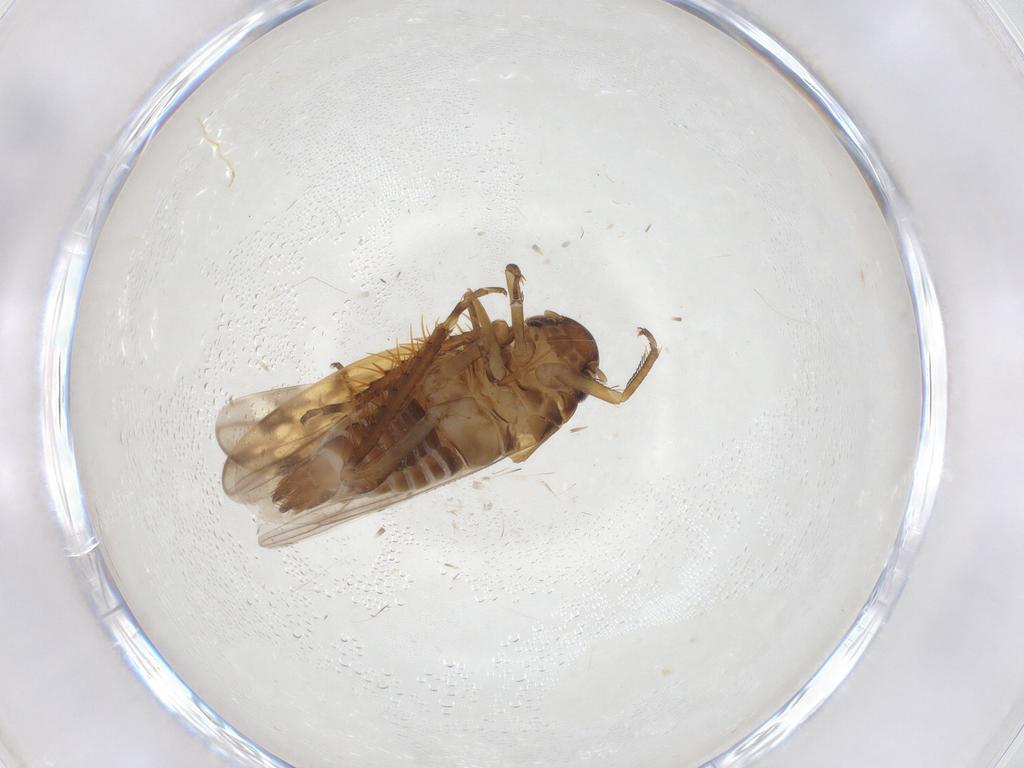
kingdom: Animalia
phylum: Arthropoda
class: Insecta
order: Hemiptera
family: Cicadellidae
